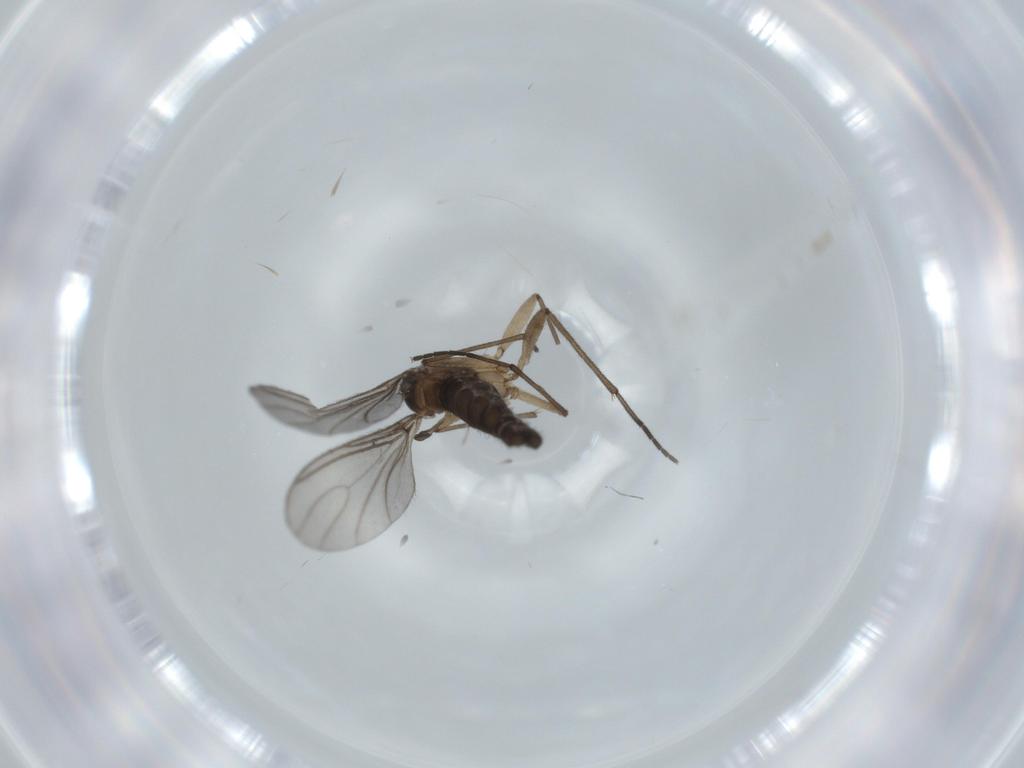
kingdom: Animalia
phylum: Arthropoda
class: Insecta
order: Diptera
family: Sciaridae
